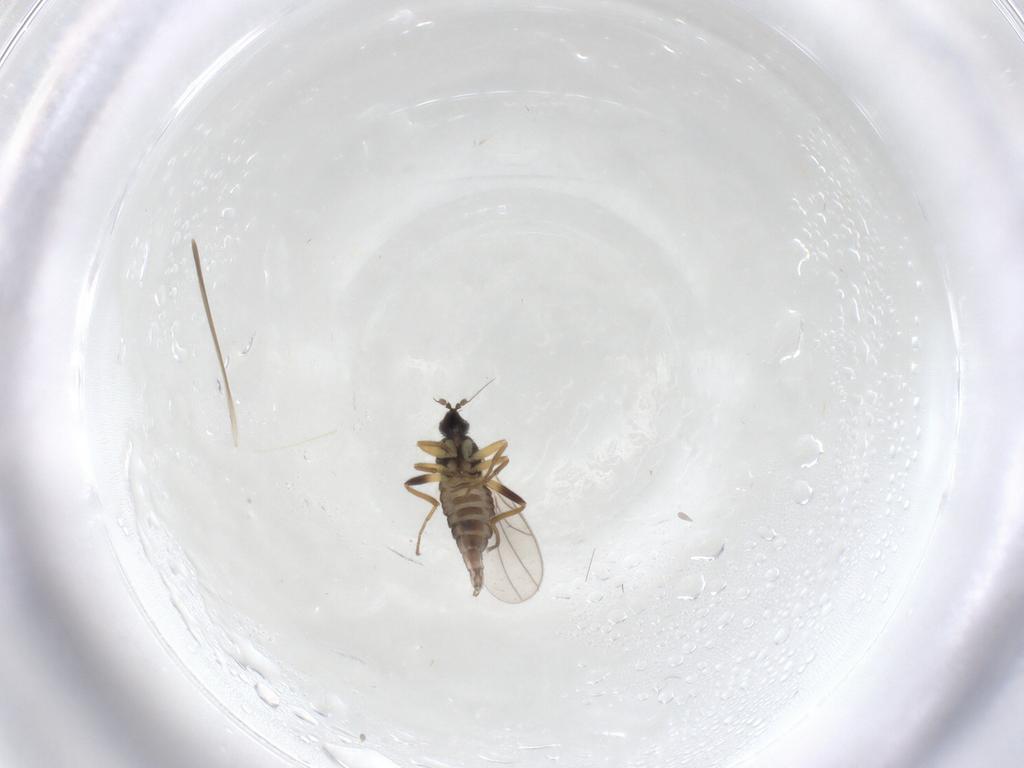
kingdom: Animalia
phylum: Arthropoda
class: Insecta
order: Diptera
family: Hybotidae
